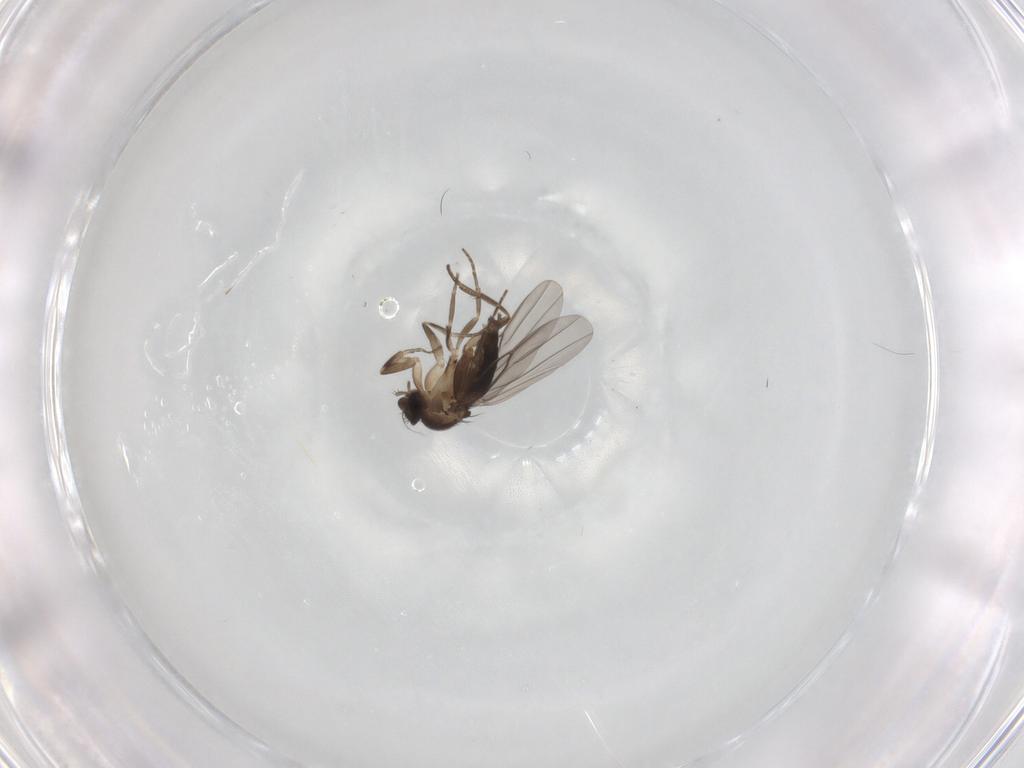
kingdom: Animalia
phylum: Arthropoda
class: Insecta
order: Diptera
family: Phoridae
